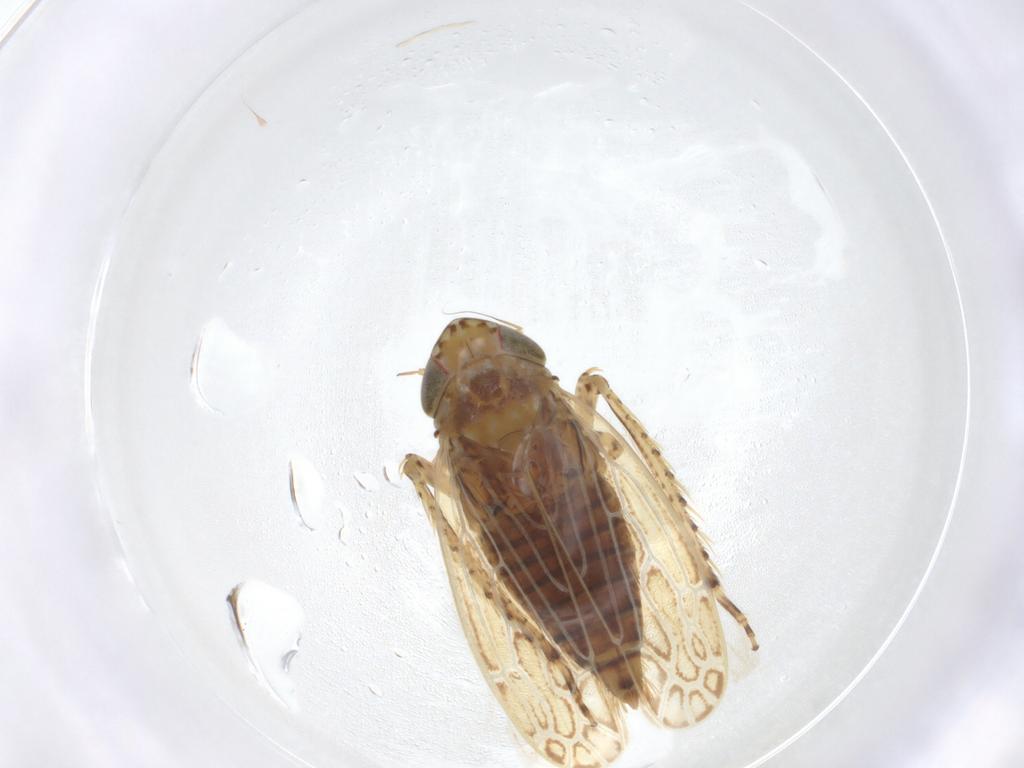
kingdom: Animalia
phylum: Arthropoda
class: Insecta
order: Hemiptera
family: Cicadellidae
